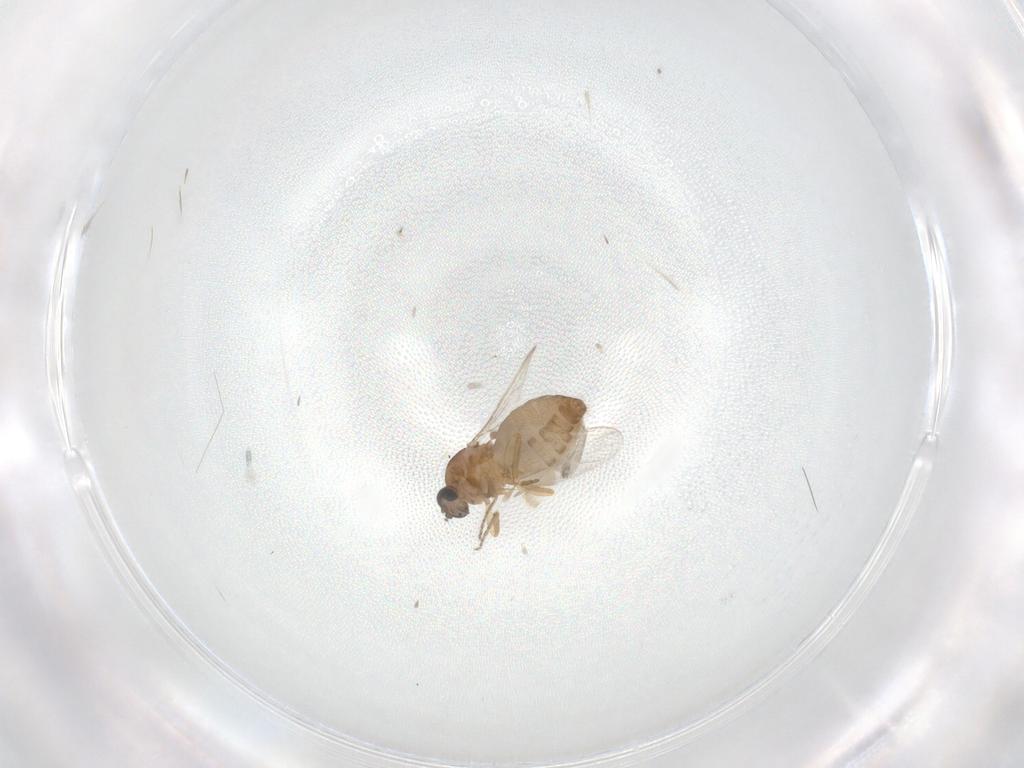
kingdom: Animalia
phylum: Arthropoda
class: Insecta
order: Diptera
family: Ceratopogonidae
